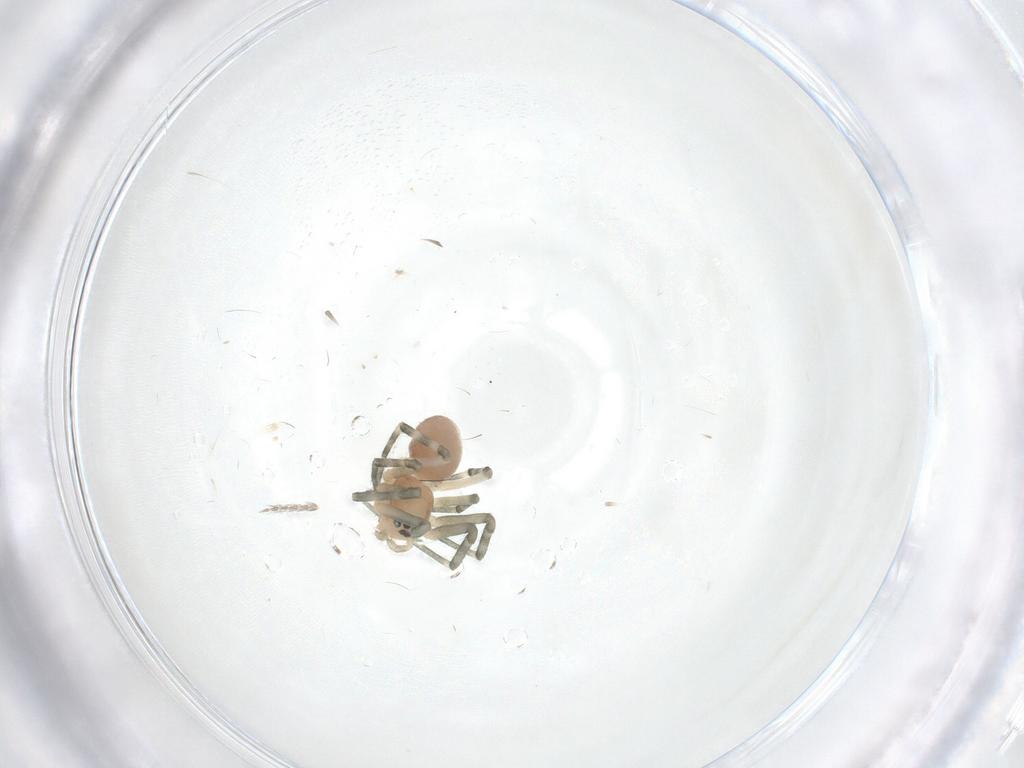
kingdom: Animalia
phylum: Arthropoda
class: Arachnida
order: Araneae
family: Linyphiidae
